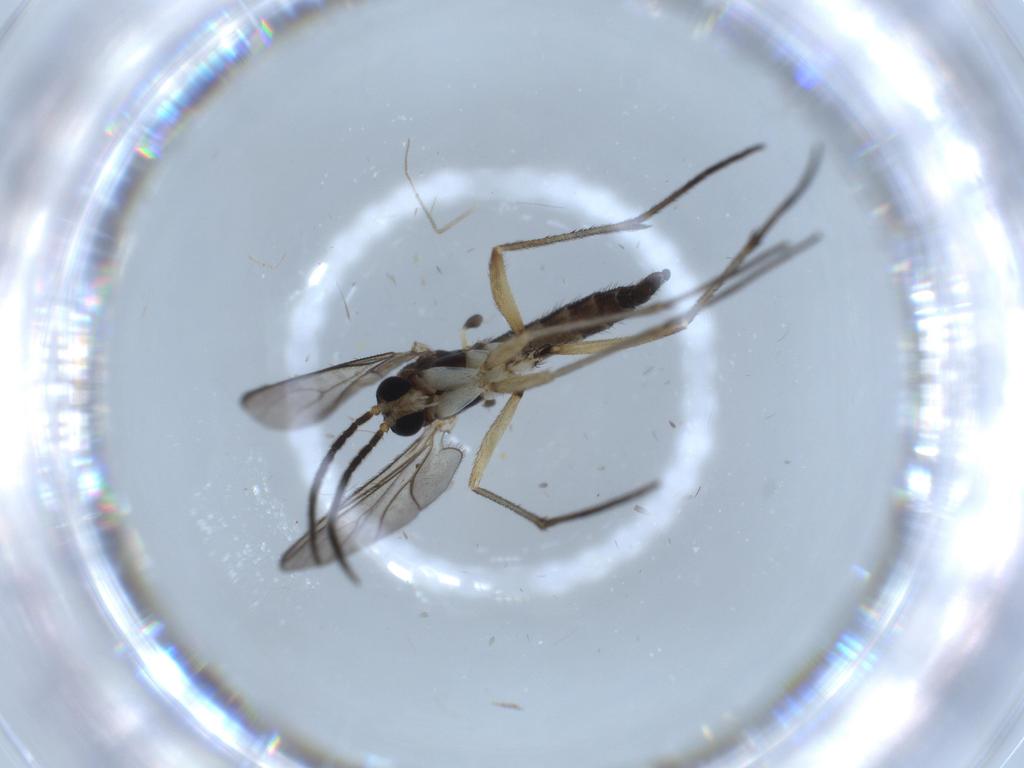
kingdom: Animalia
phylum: Arthropoda
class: Insecta
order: Diptera
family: Sciaridae
